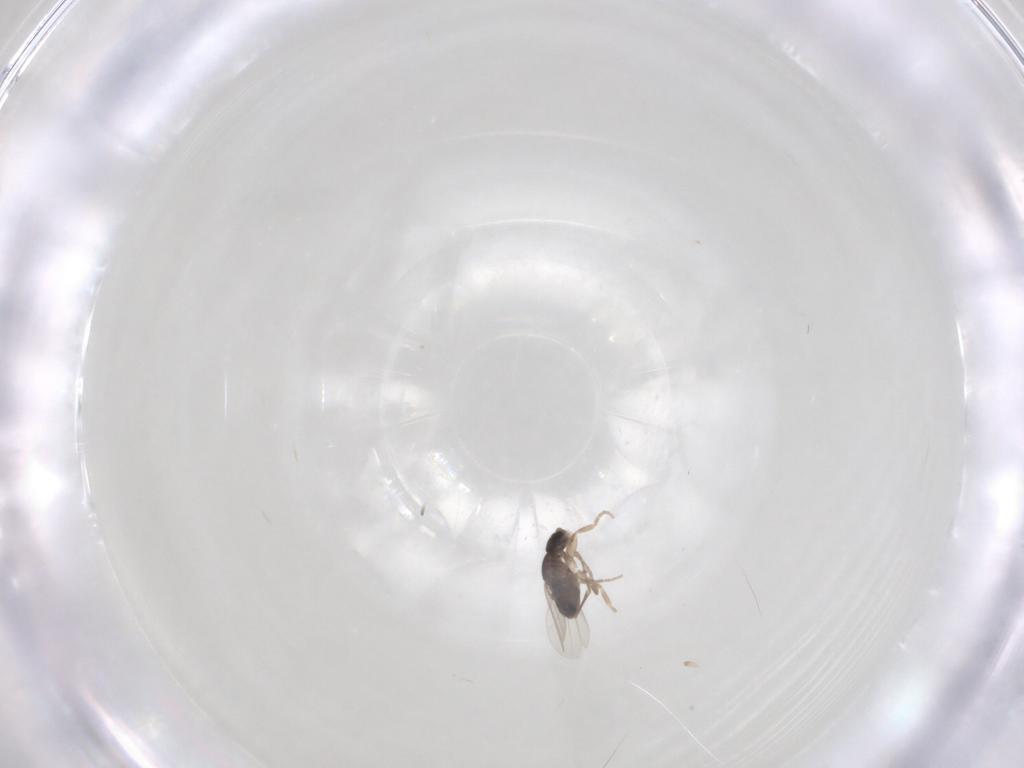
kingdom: Animalia
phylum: Arthropoda
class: Insecta
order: Diptera
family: Phoridae
